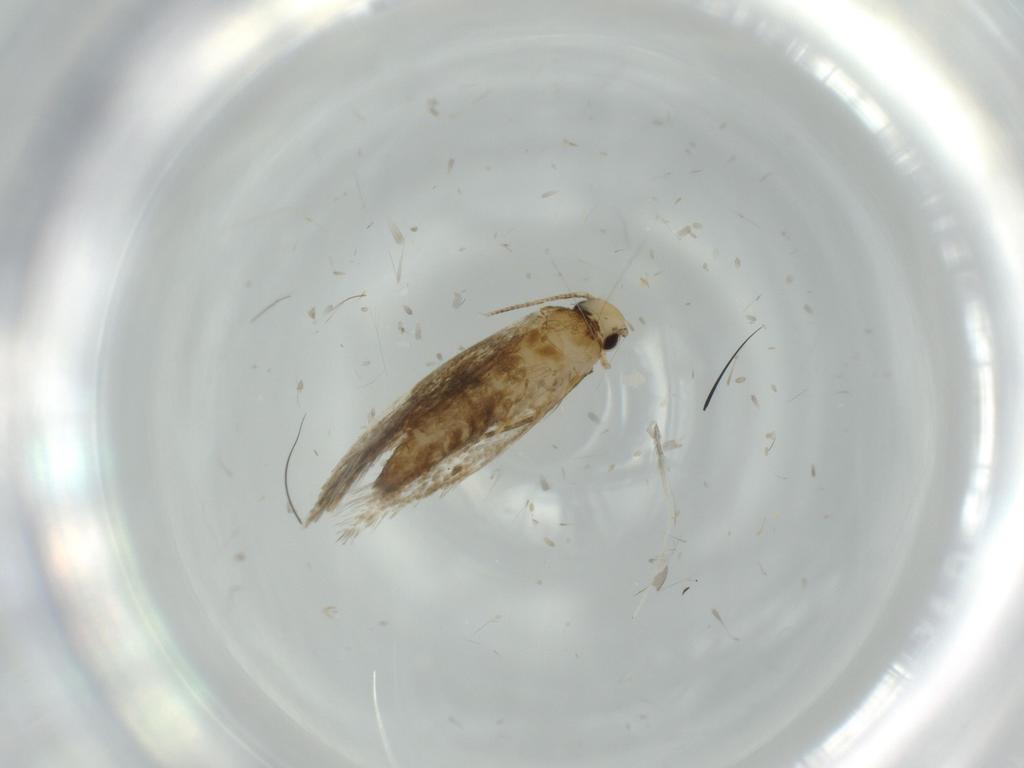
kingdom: Animalia
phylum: Arthropoda
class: Insecta
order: Lepidoptera
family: Tineidae
